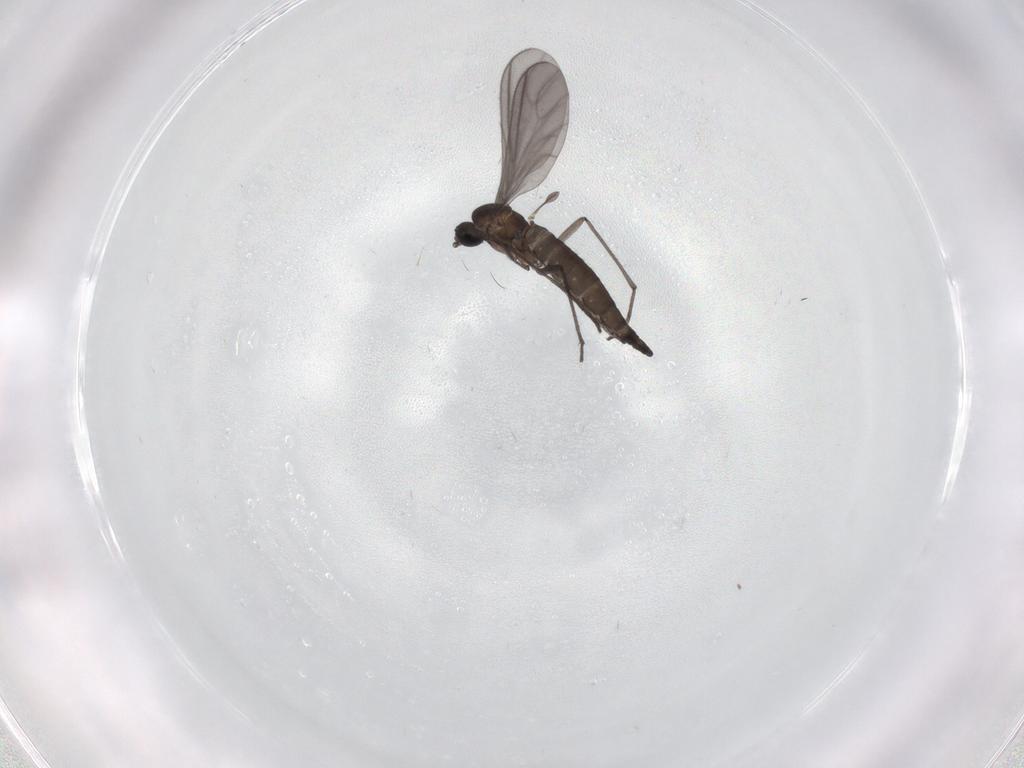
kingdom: Animalia
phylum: Arthropoda
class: Insecta
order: Diptera
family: Sciaridae
